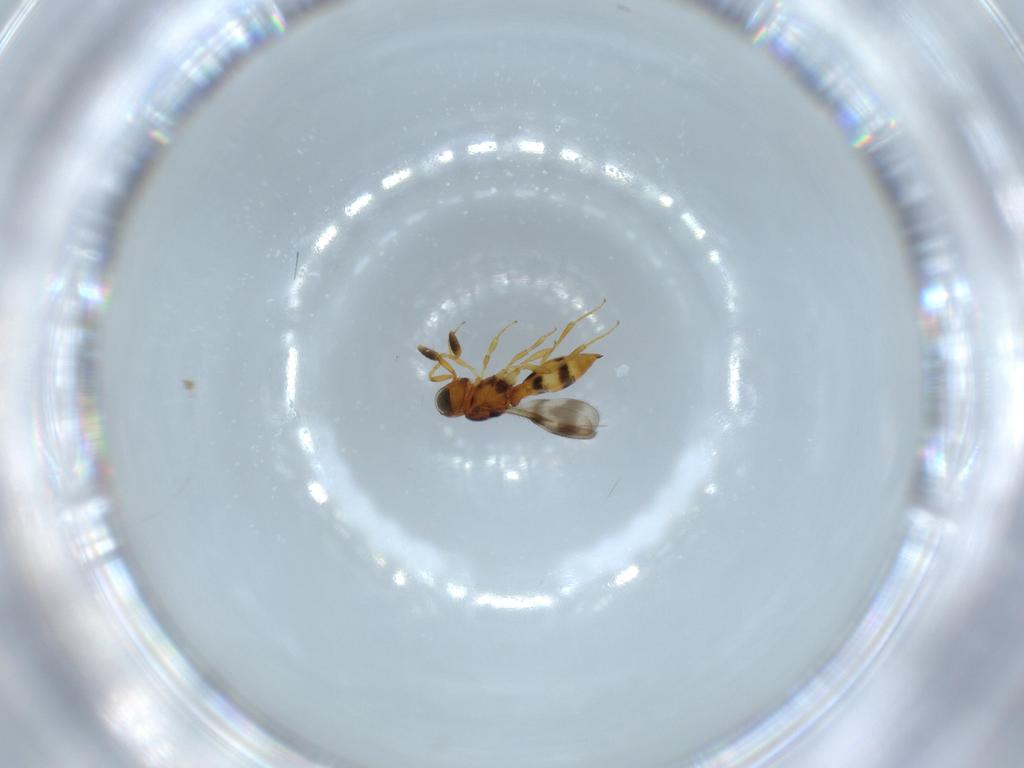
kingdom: Animalia
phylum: Arthropoda
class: Insecta
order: Hymenoptera
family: Scelionidae
